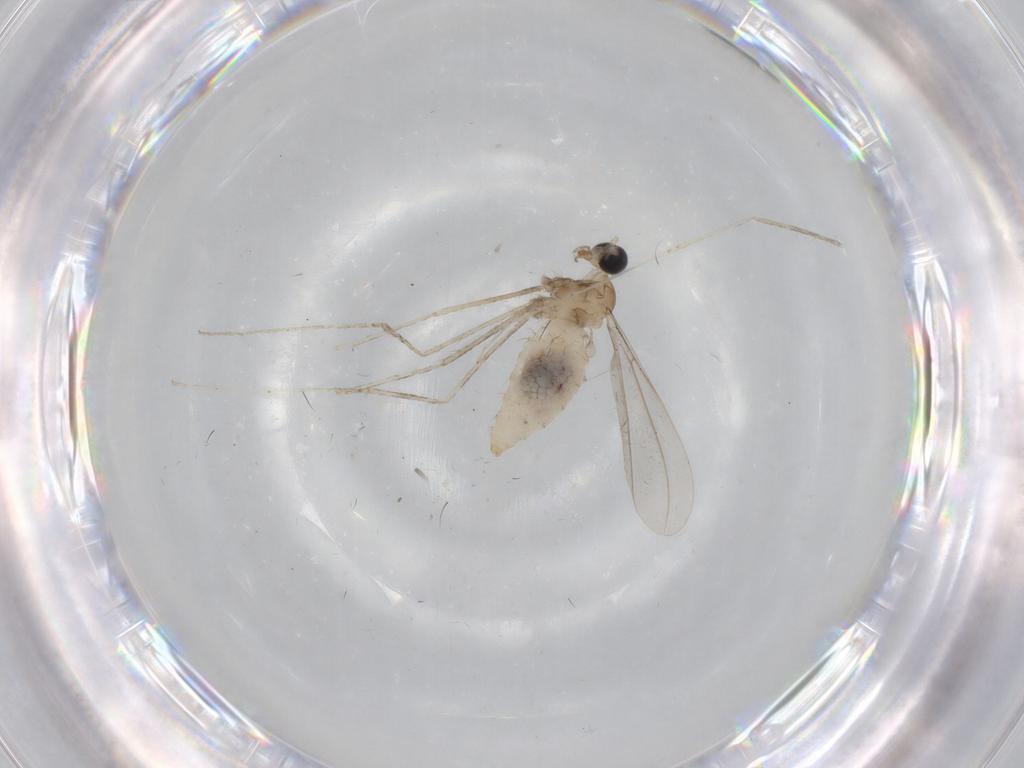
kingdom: Animalia
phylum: Arthropoda
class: Insecta
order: Diptera
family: Cecidomyiidae
